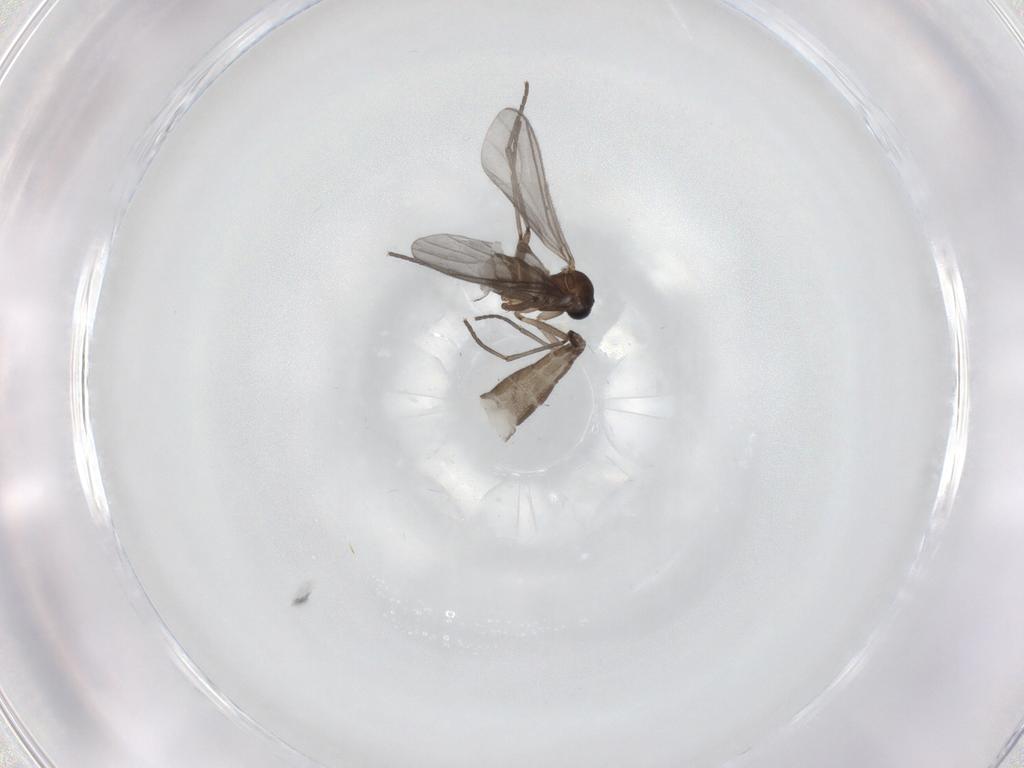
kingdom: Animalia
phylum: Arthropoda
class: Insecta
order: Diptera
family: Sciaridae
